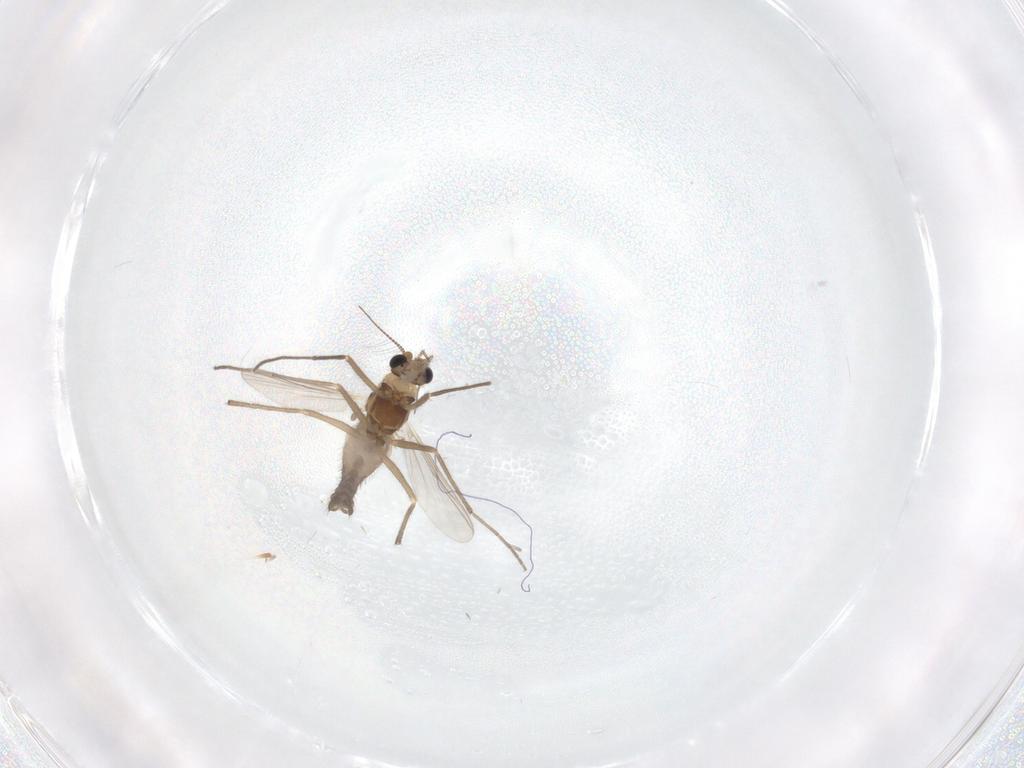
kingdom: Animalia
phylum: Arthropoda
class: Insecta
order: Diptera
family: Chironomidae
